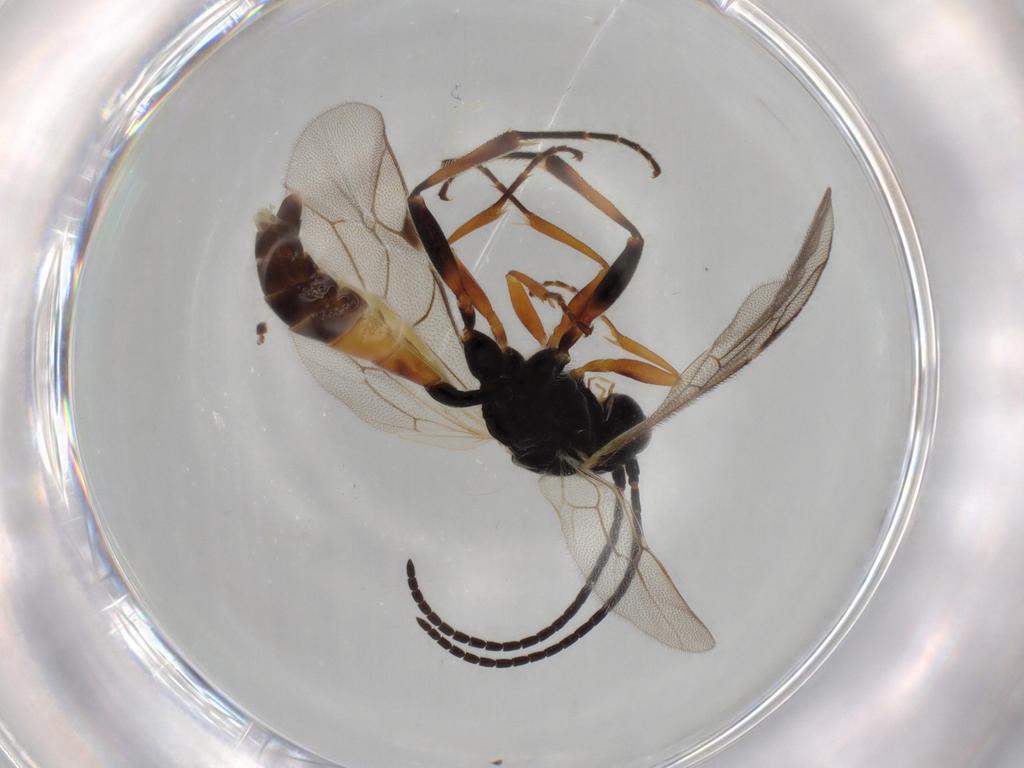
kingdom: Animalia
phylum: Arthropoda
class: Insecta
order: Hymenoptera
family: Ichneumonidae
